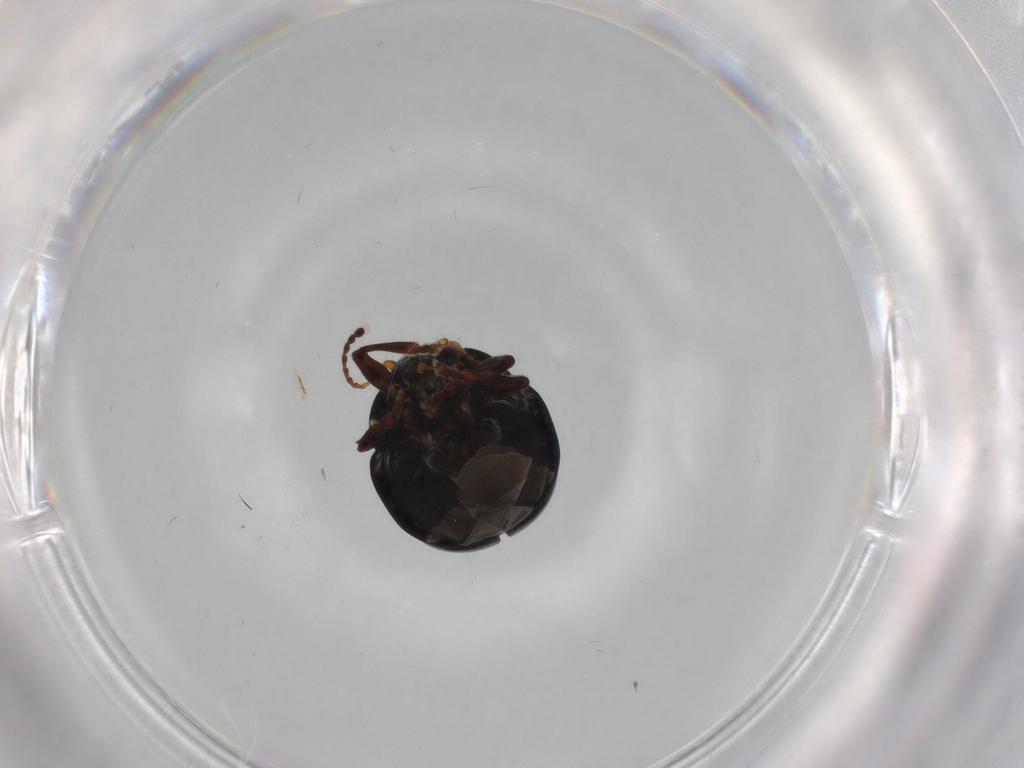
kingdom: Animalia
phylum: Arthropoda
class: Insecta
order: Coleoptera
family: Chrysomelidae
